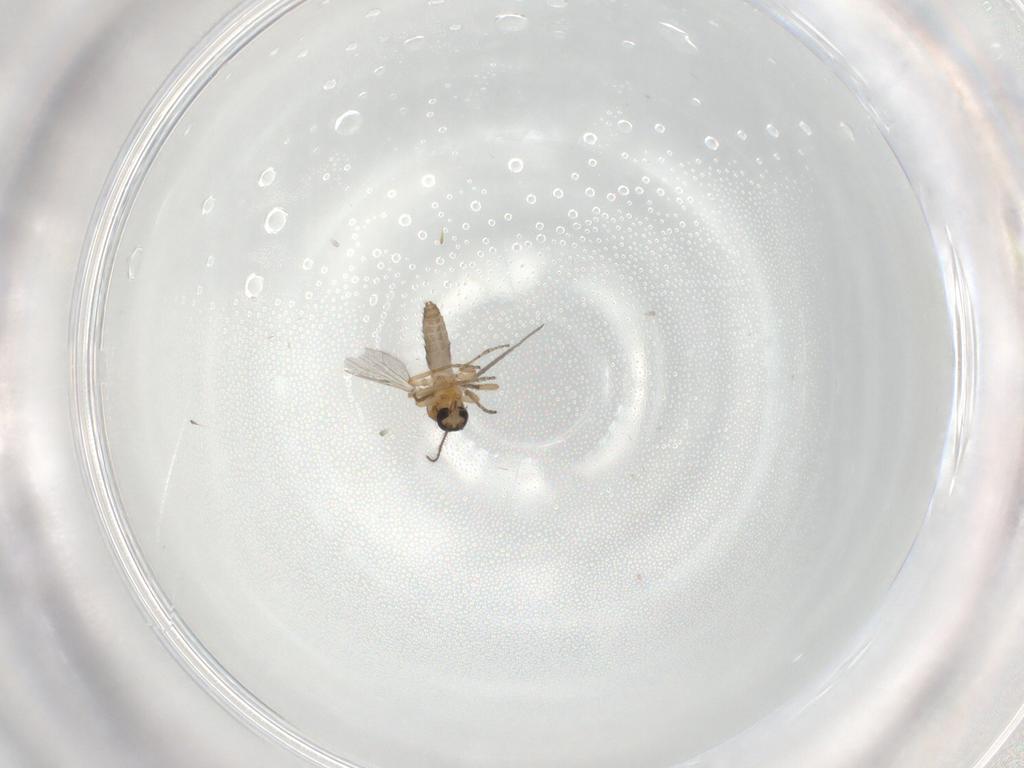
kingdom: Animalia
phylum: Arthropoda
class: Insecta
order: Diptera
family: Ceratopogonidae
